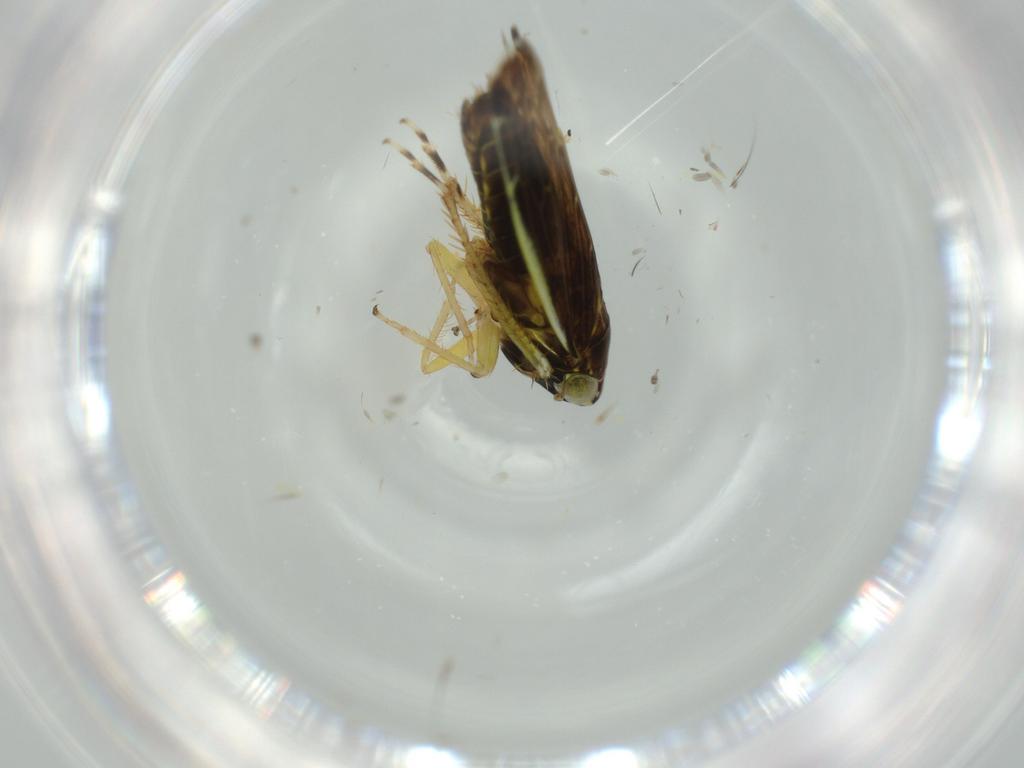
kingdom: Animalia
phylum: Arthropoda
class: Insecta
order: Hemiptera
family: Cicadellidae
